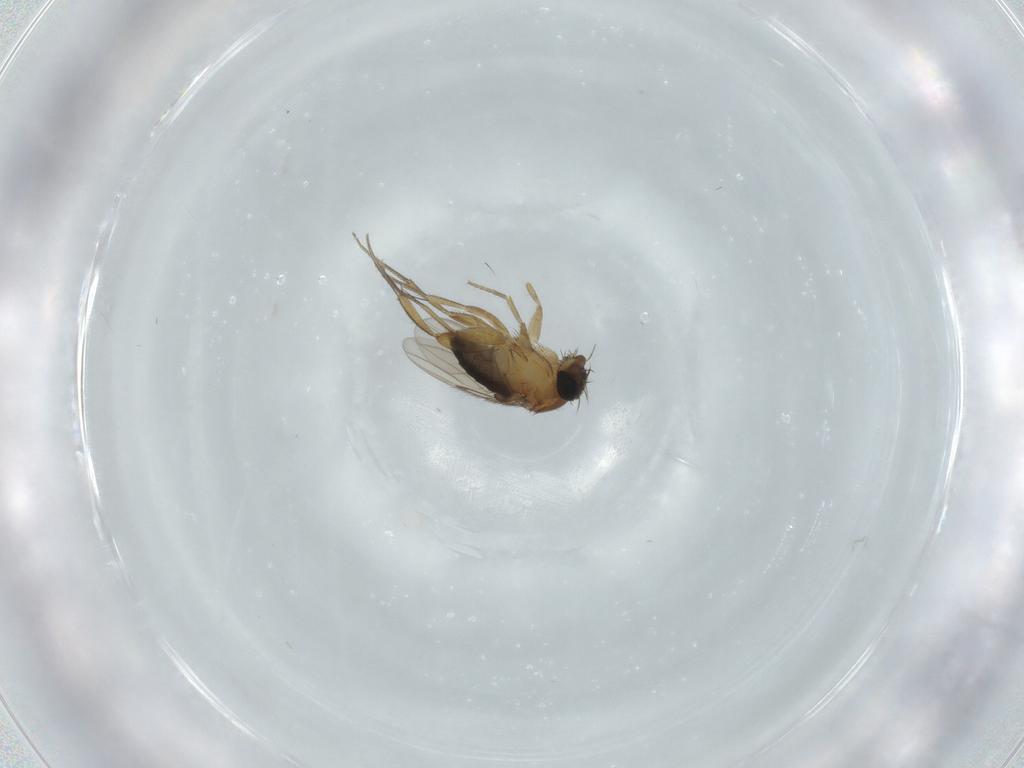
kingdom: Animalia
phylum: Arthropoda
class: Insecta
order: Diptera
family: Phoridae
